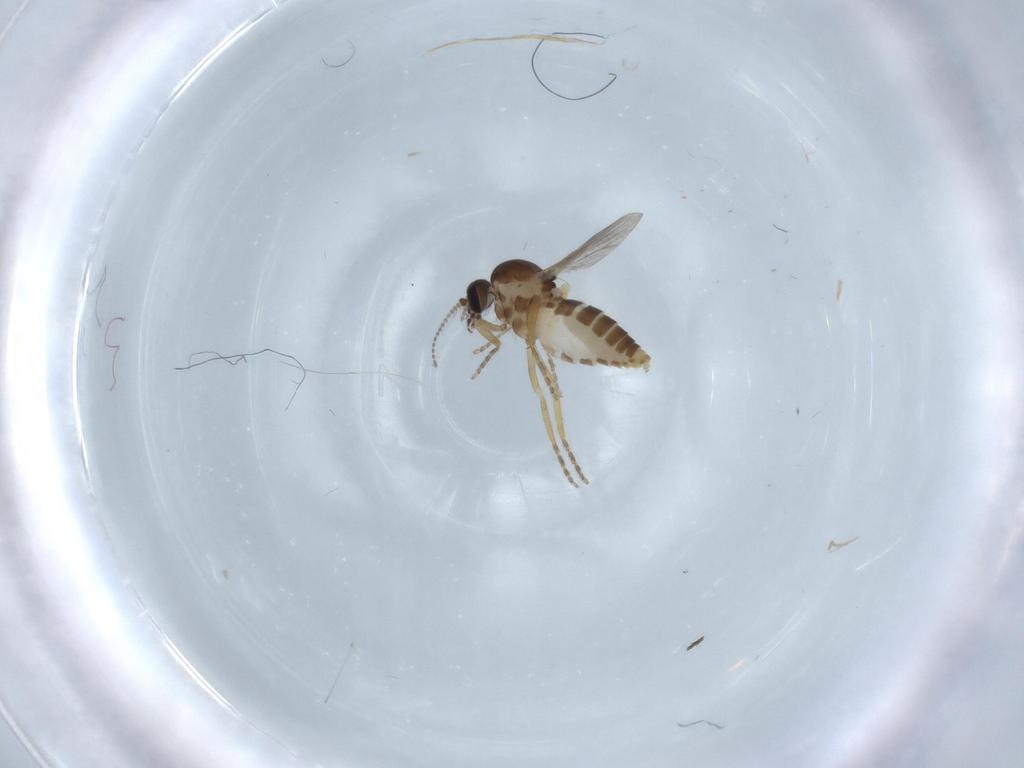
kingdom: Animalia
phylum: Arthropoda
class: Insecta
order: Diptera
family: Ceratopogonidae
